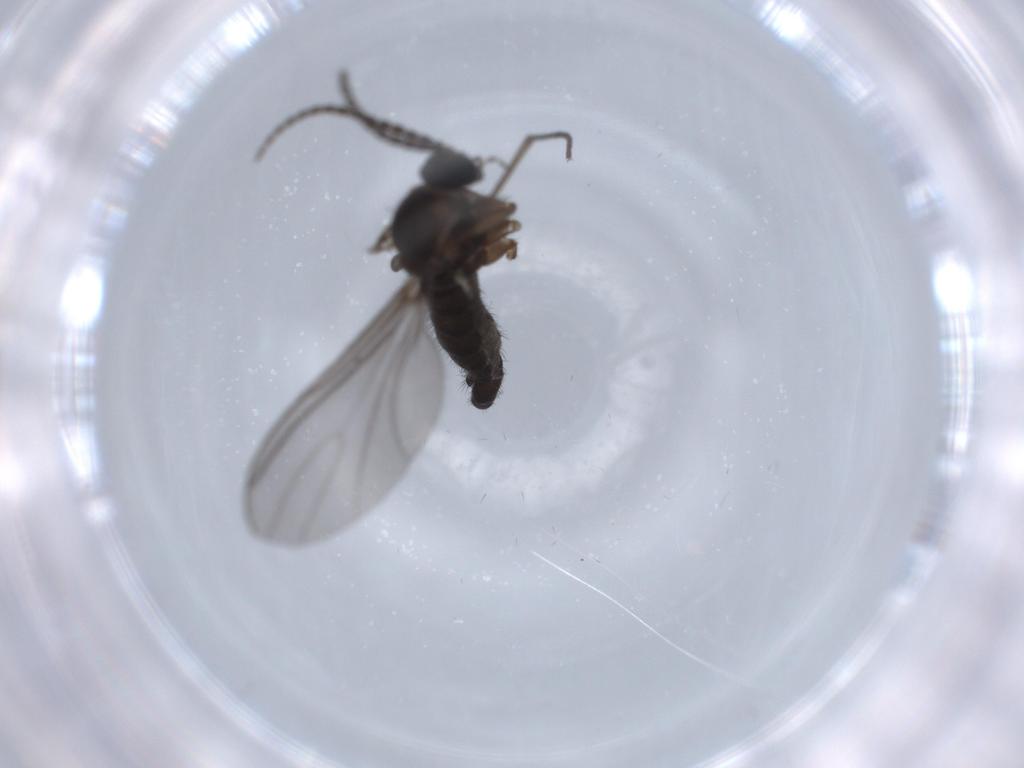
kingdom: Animalia
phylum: Arthropoda
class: Insecta
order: Diptera
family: Sciaridae
